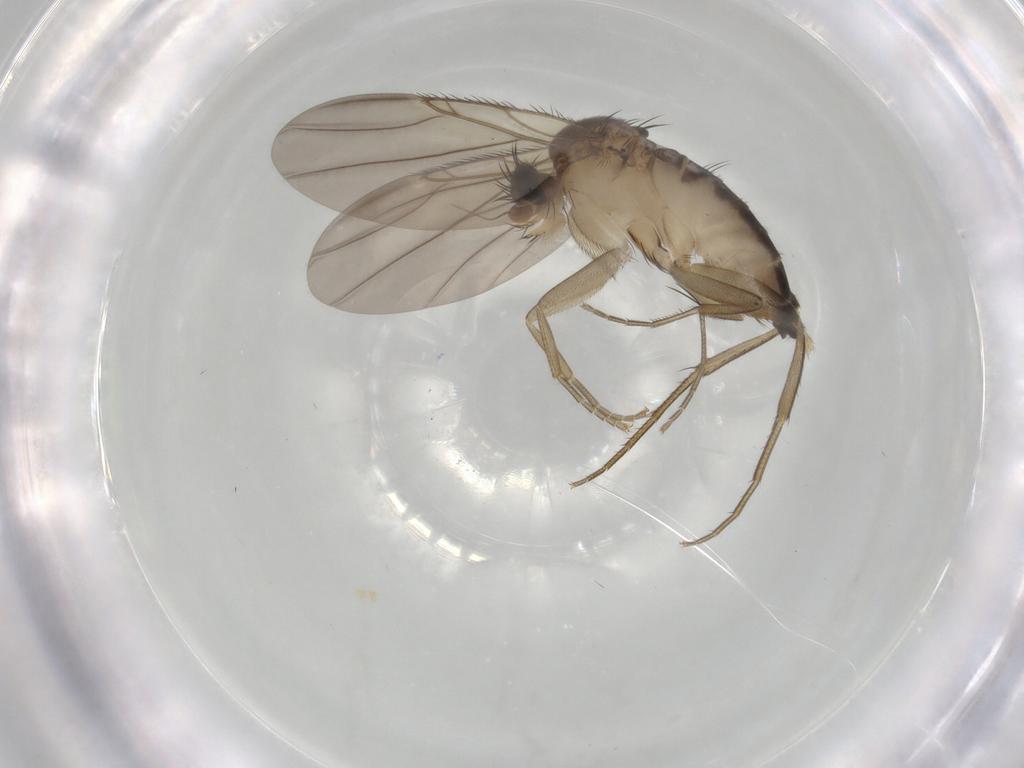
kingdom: Animalia
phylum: Arthropoda
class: Insecta
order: Diptera
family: Phoridae
